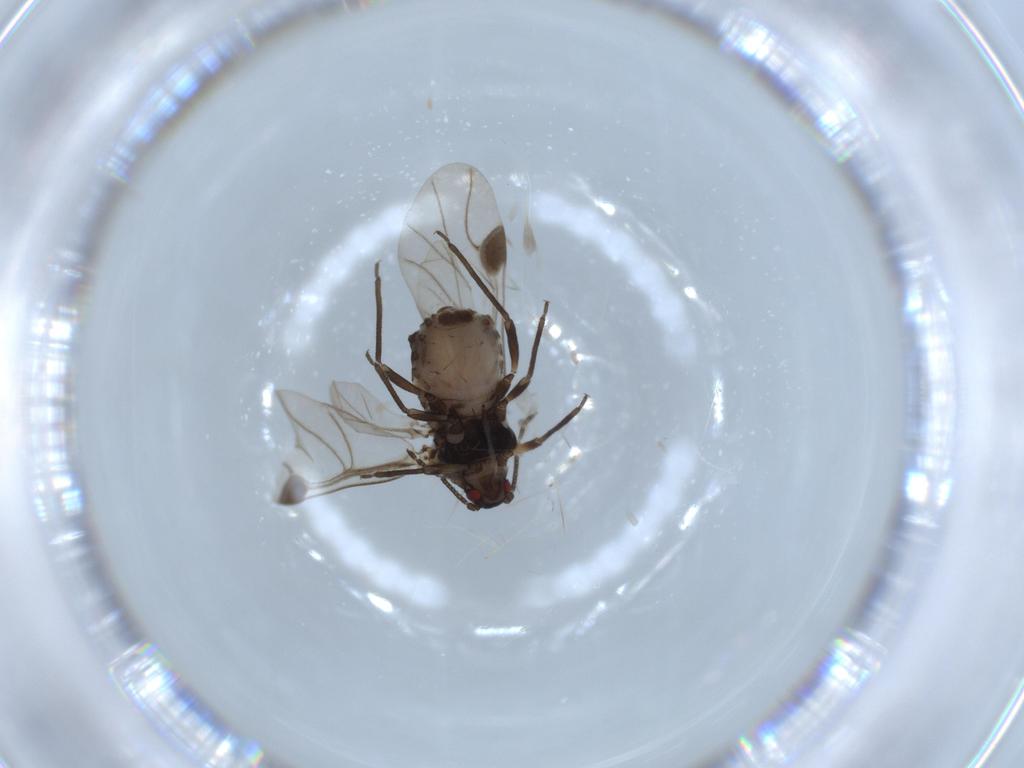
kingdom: Animalia
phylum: Arthropoda
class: Insecta
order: Hemiptera
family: Aphididae
